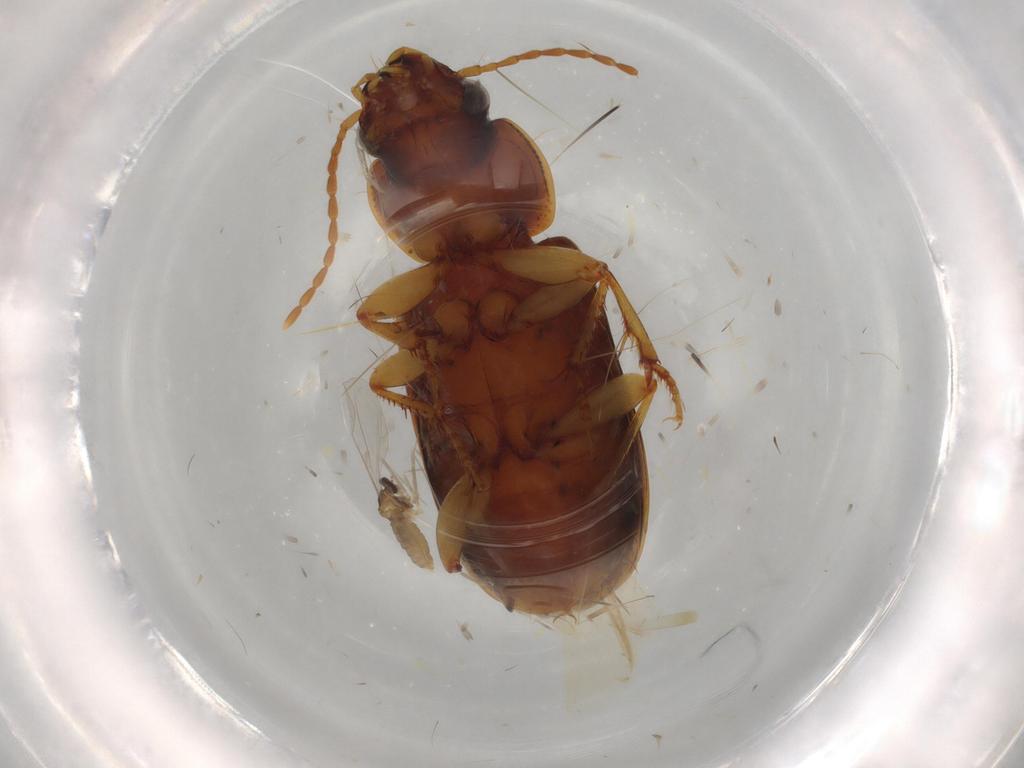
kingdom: Animalia
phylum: Arthropoda
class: Insecta
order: Coleoptera
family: Carabidae
